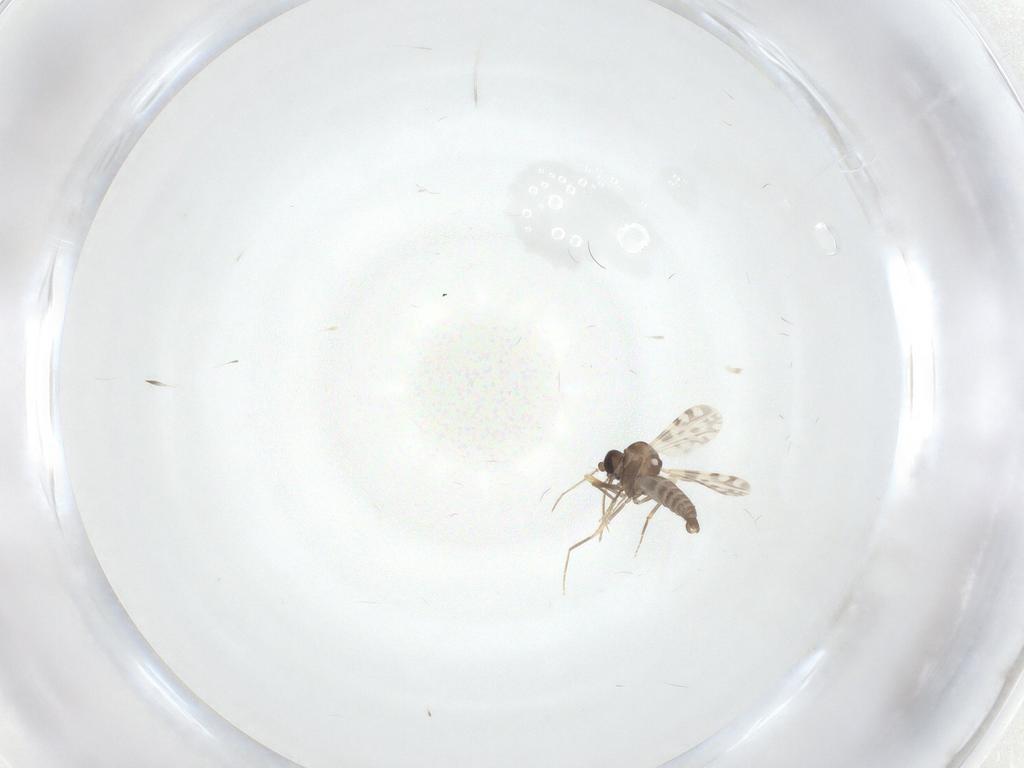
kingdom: Animalia
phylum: Arthropoda
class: Insecta
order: Diptera
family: Ceratopogonidae
